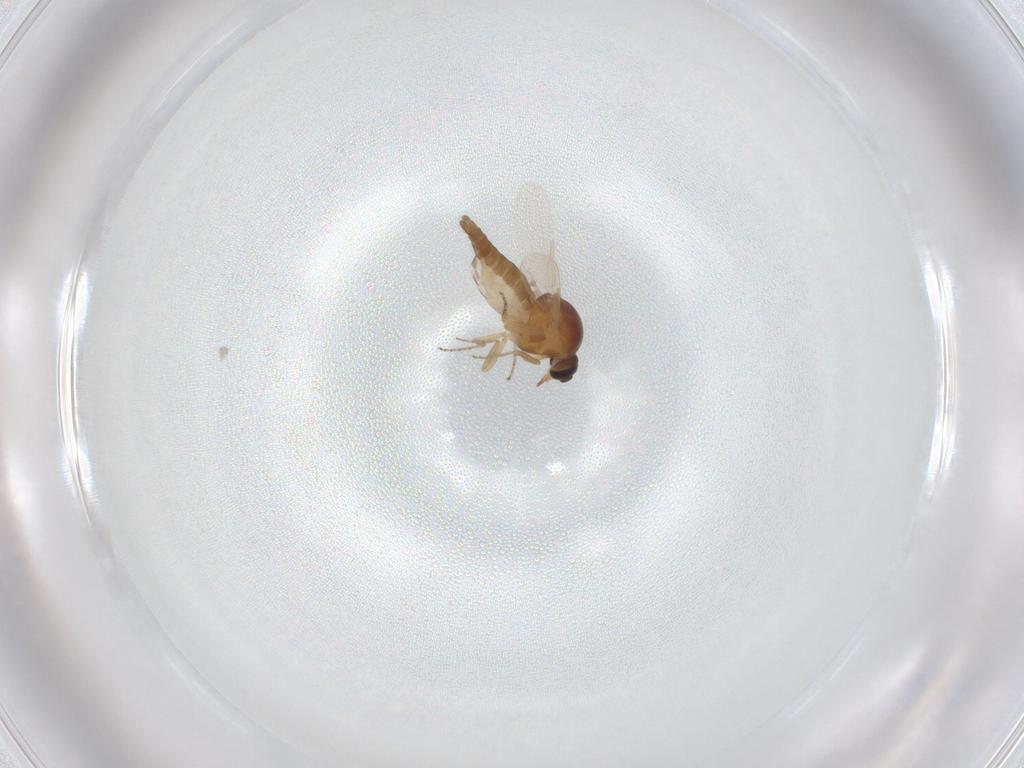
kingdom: Animalia
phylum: Arthropoda
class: Insecta
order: Diptera
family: Ceratopogonidae
